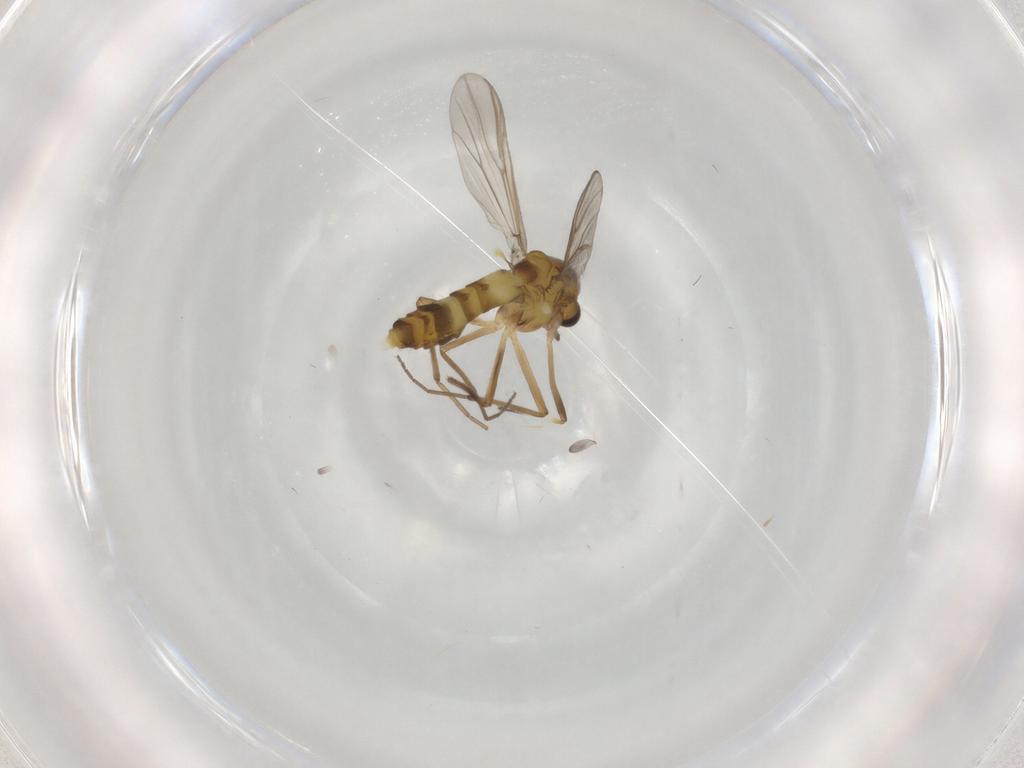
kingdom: Animalia
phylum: Arthropoda
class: Insecta
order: Diptera
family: Chironomidae
